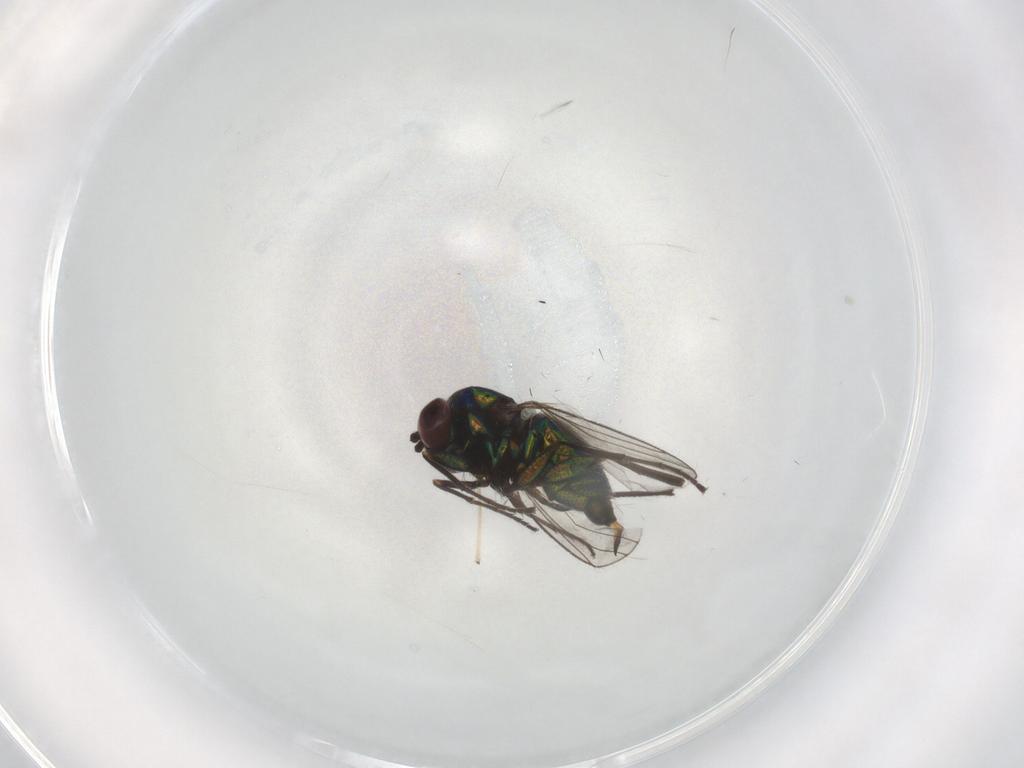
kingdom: Animalia
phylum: Arthropoda
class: Insecta
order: Diptera
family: Dolichopodidae
